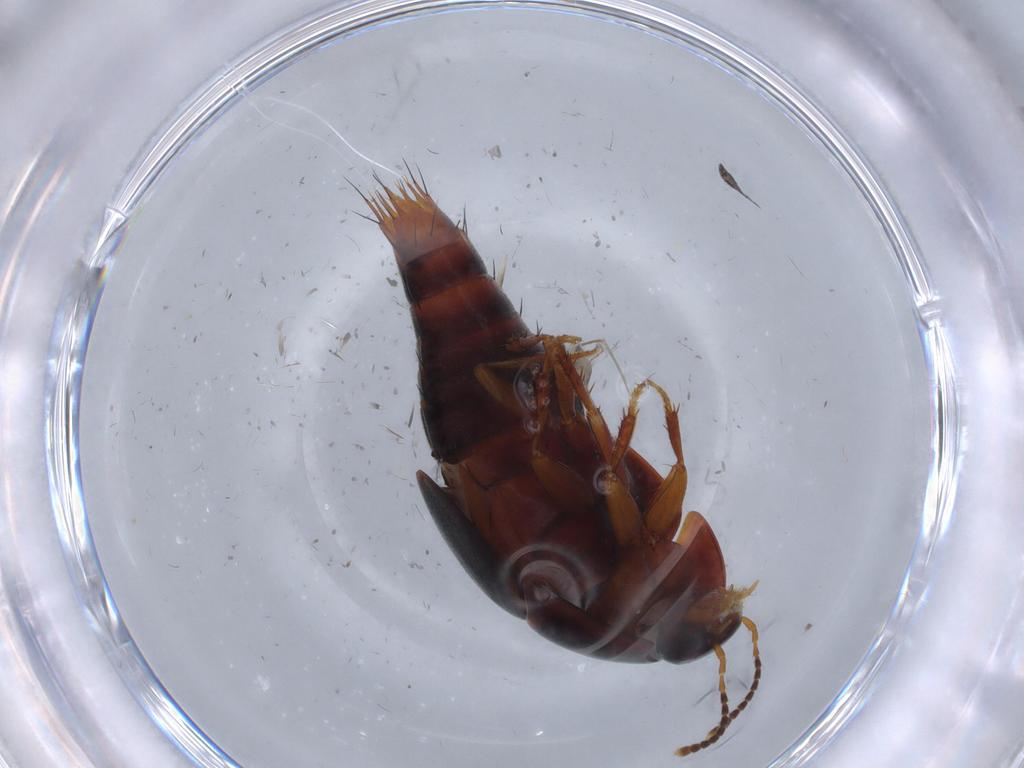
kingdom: Animalia
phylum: Arthropoda
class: Insecta
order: Coleoptera
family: Staphylinidae
